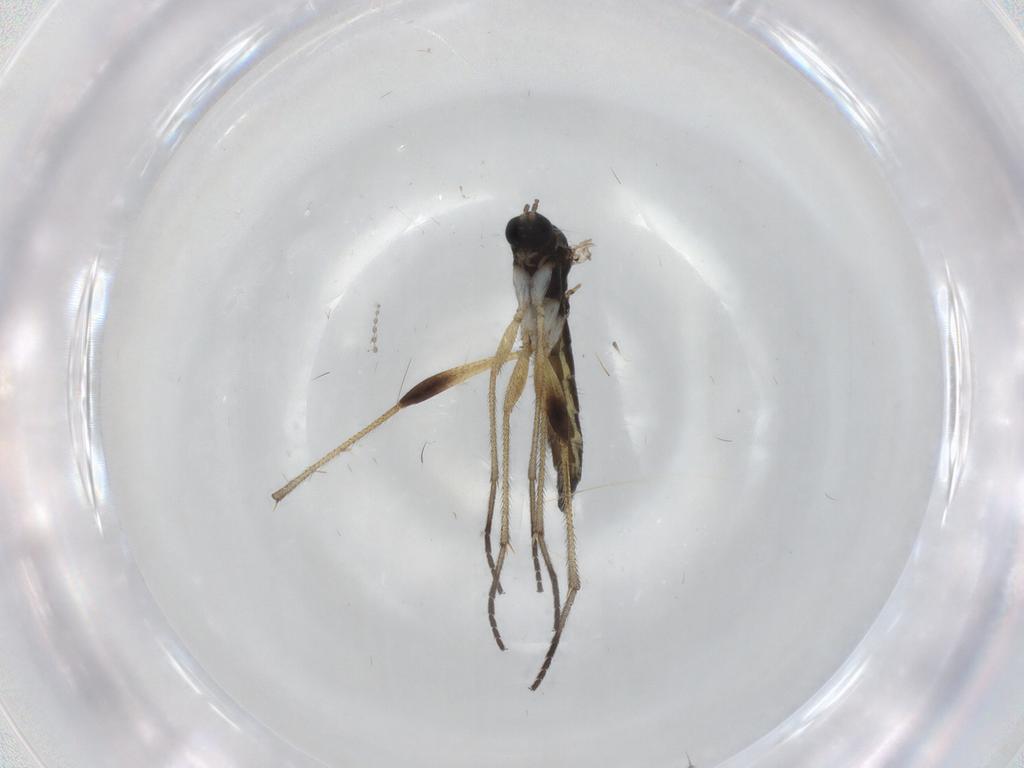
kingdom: Animalia
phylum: Arthropoda
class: Insecta
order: Diptera
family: Sciaridae
